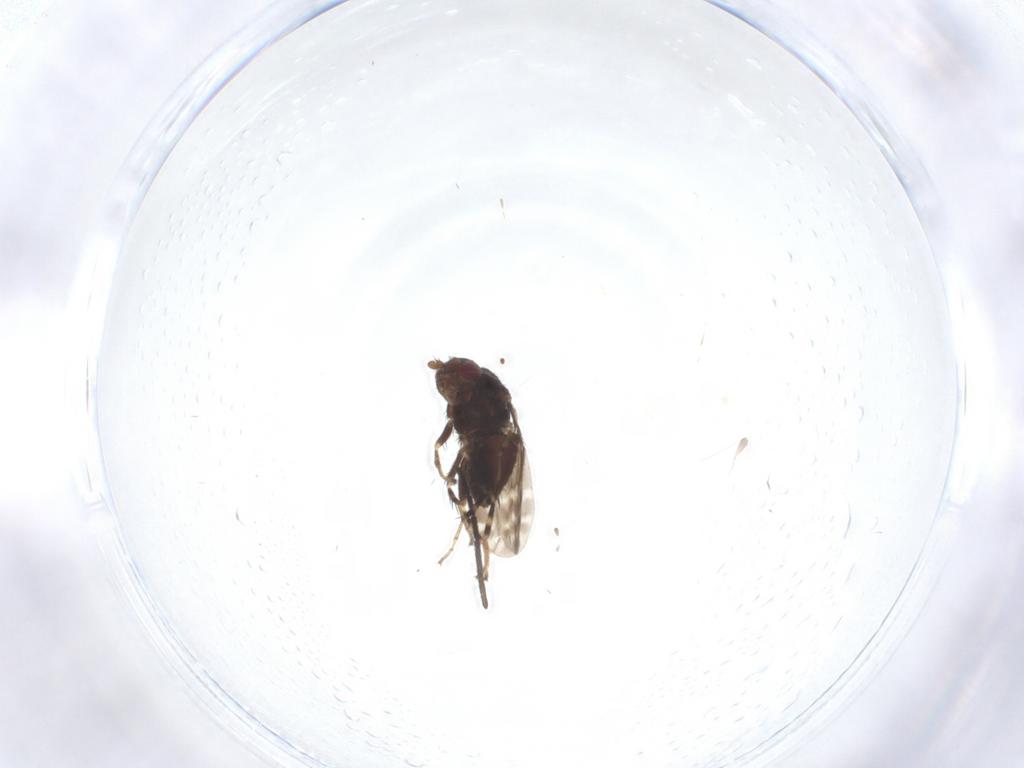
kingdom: Animalia
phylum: Arthropoda
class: Insecta
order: Diptera
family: Sphaeroceridae
